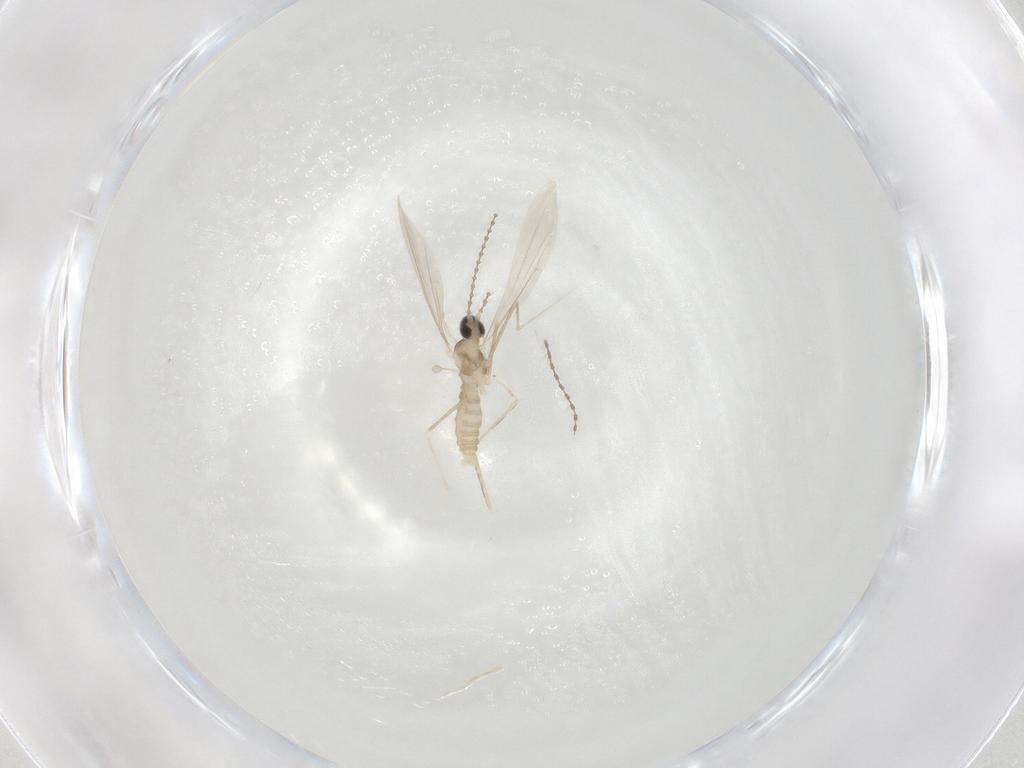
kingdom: Animalia
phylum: Arthropoda
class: Insecta
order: Diptera
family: Cecidomyiidae
